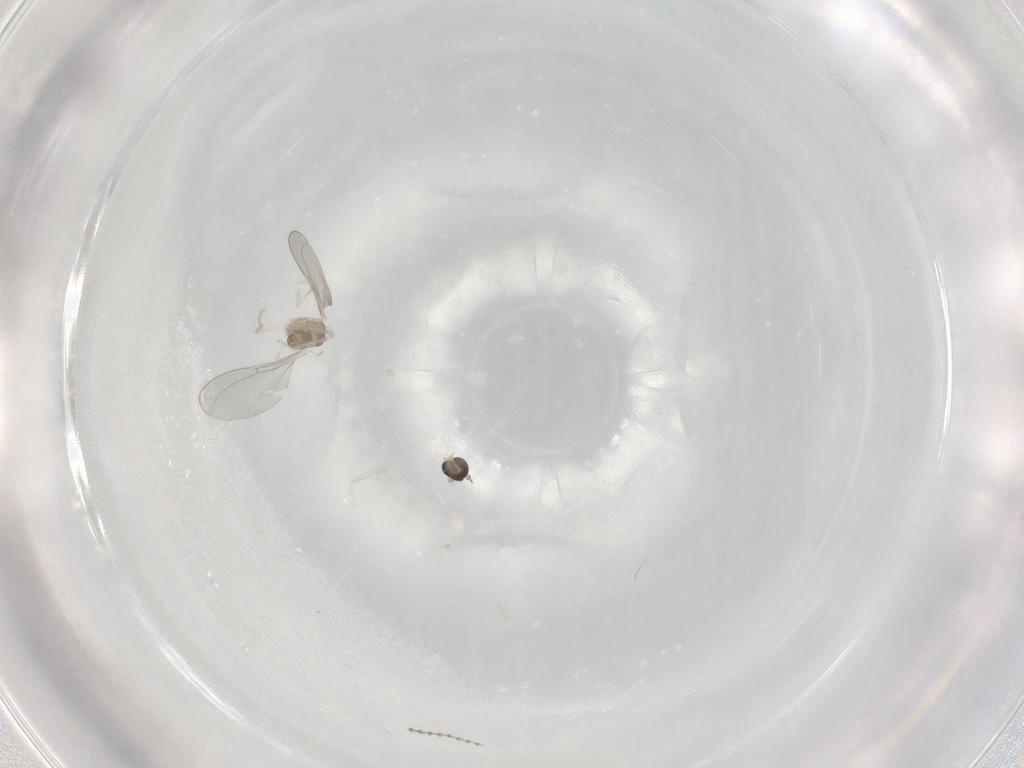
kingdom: Animalia
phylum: Arthropoda
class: Insecta
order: Diptera
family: Cecidomyiidae
